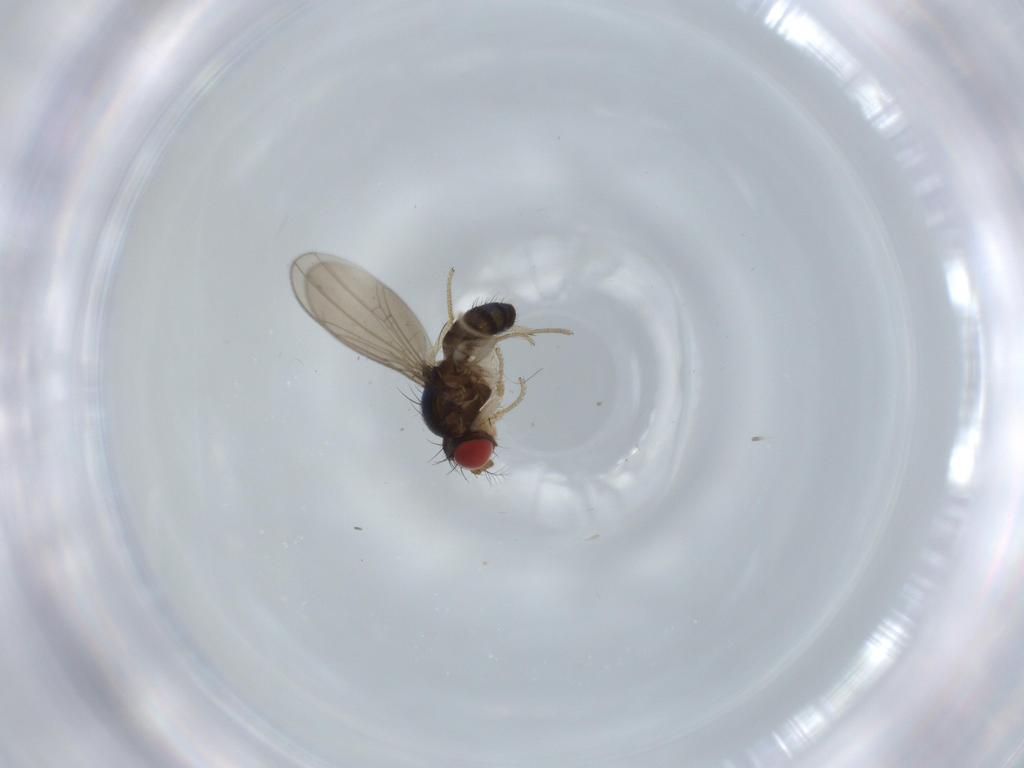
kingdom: Animalia
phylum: Arthropoda
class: Insecta
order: Diptera
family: Drosophilidae
